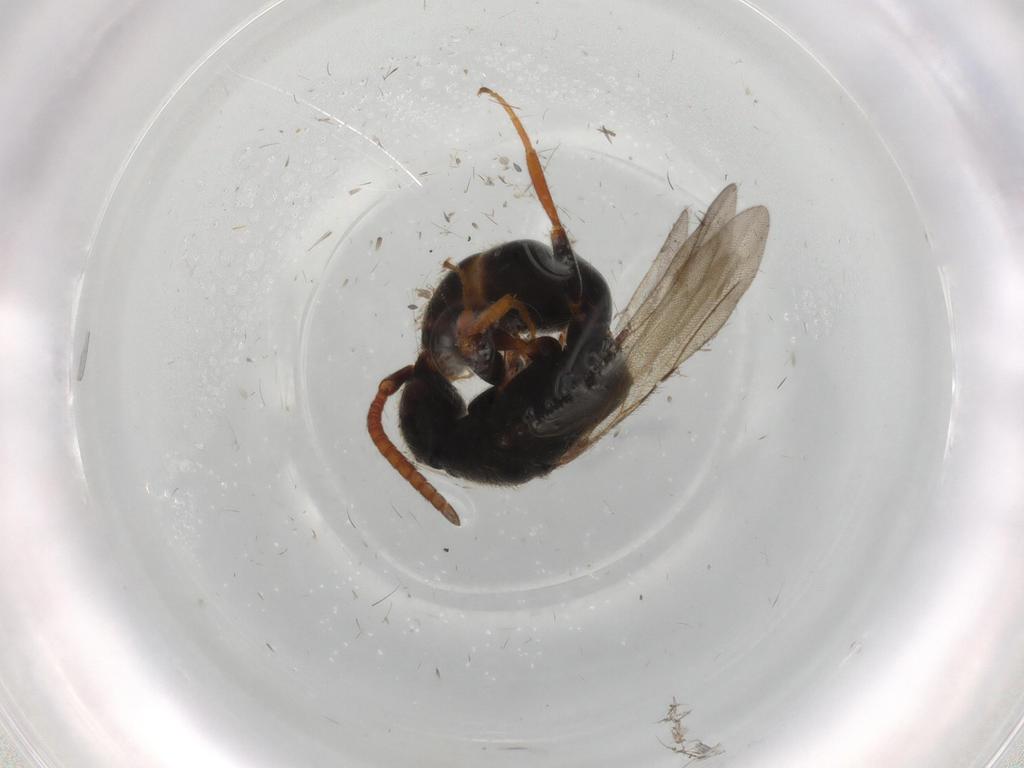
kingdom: Animalia
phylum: Arthropoda
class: Insecta
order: Hymenoptera
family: Bethylidae
